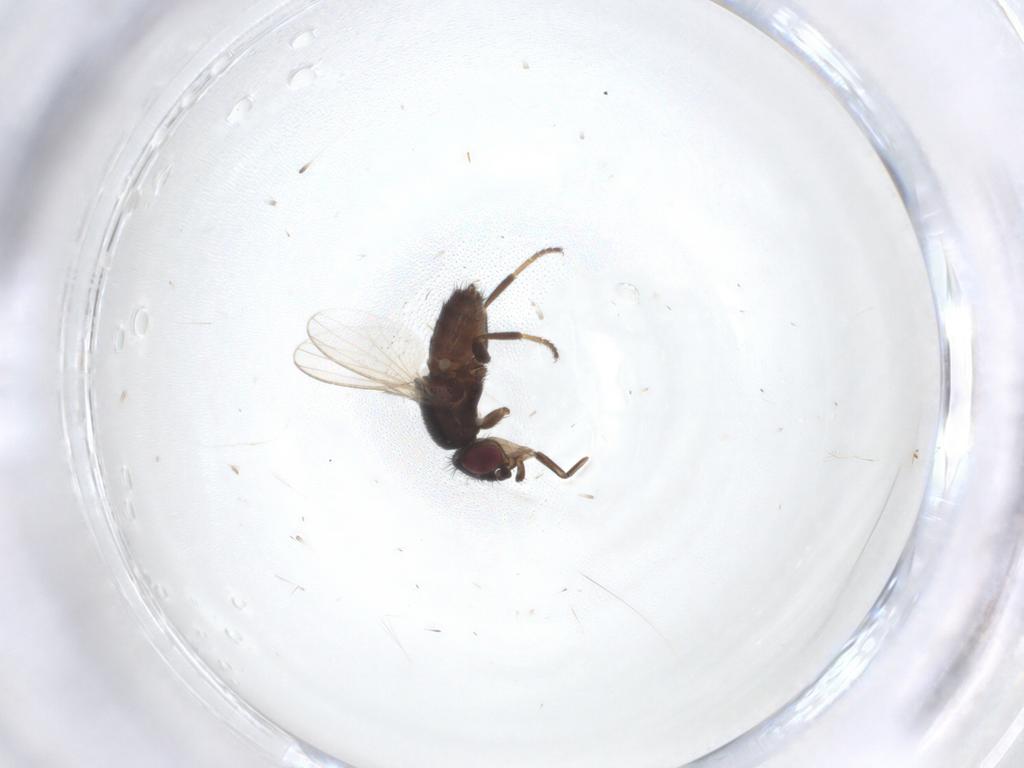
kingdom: Animalia
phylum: Arthropoda
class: Insecta
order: Diptera
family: Milichiidae
